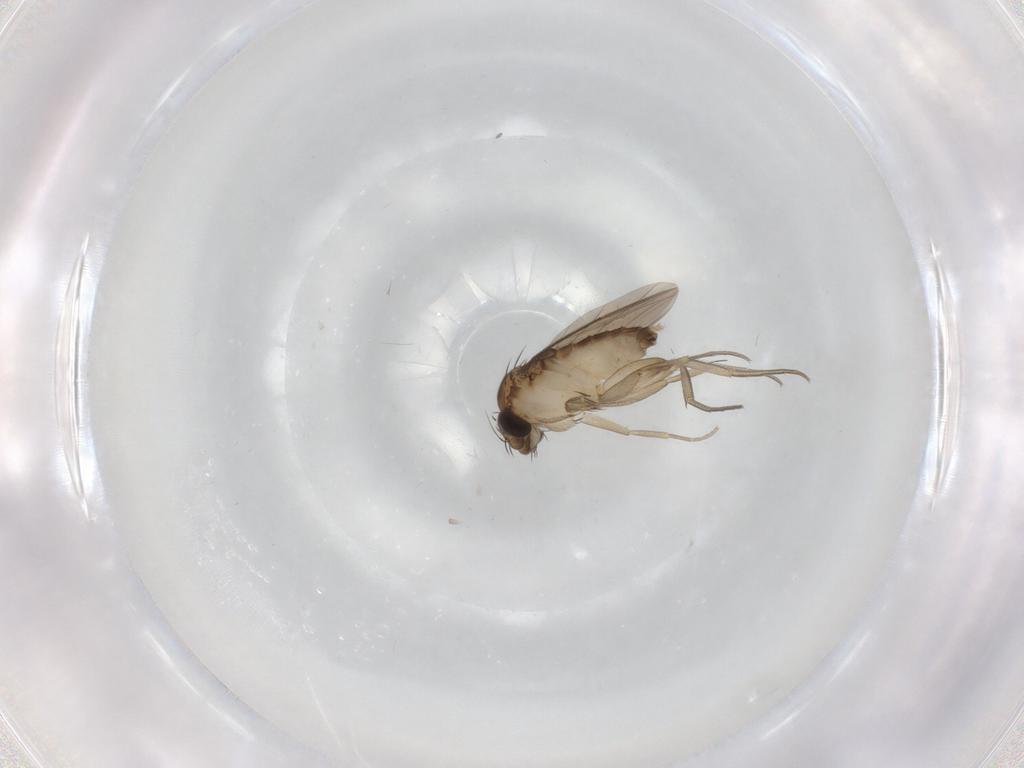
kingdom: Animalia
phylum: Arthropoda
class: Insecta
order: Diptera
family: Phoridae
